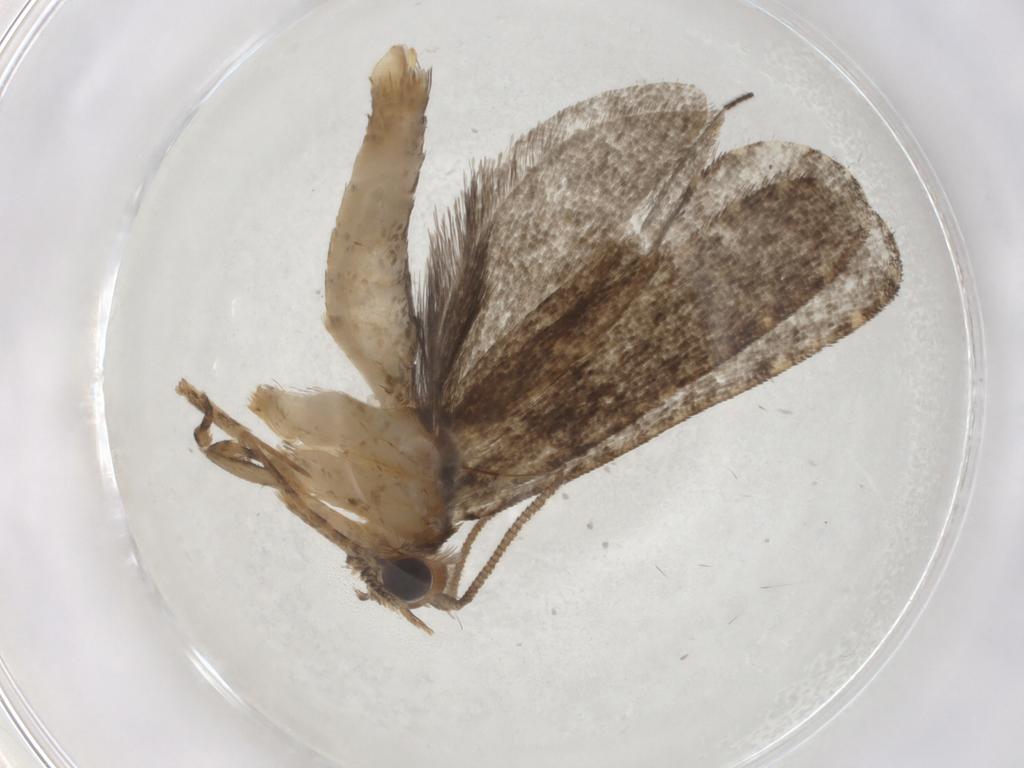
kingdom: Animalia
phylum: Arthropoda
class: Insecta
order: Lepidoptera
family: Tineidae
